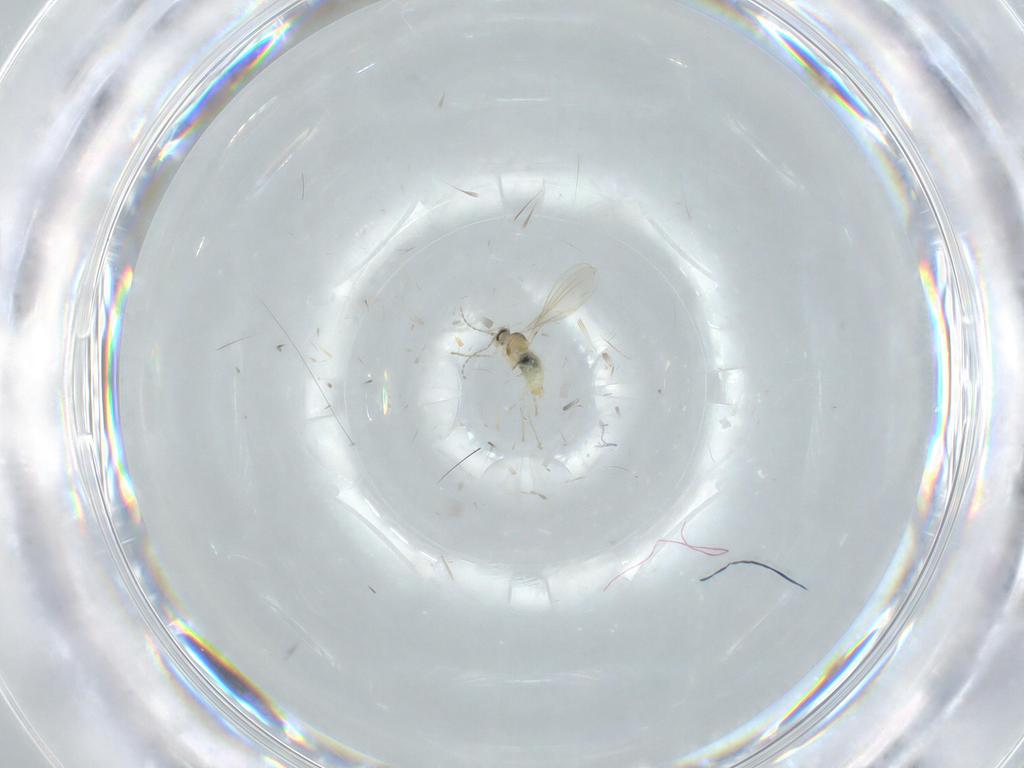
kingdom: Animalia
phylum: Arthropoda
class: Insecta
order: Diptera
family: Cecidomyiidae
